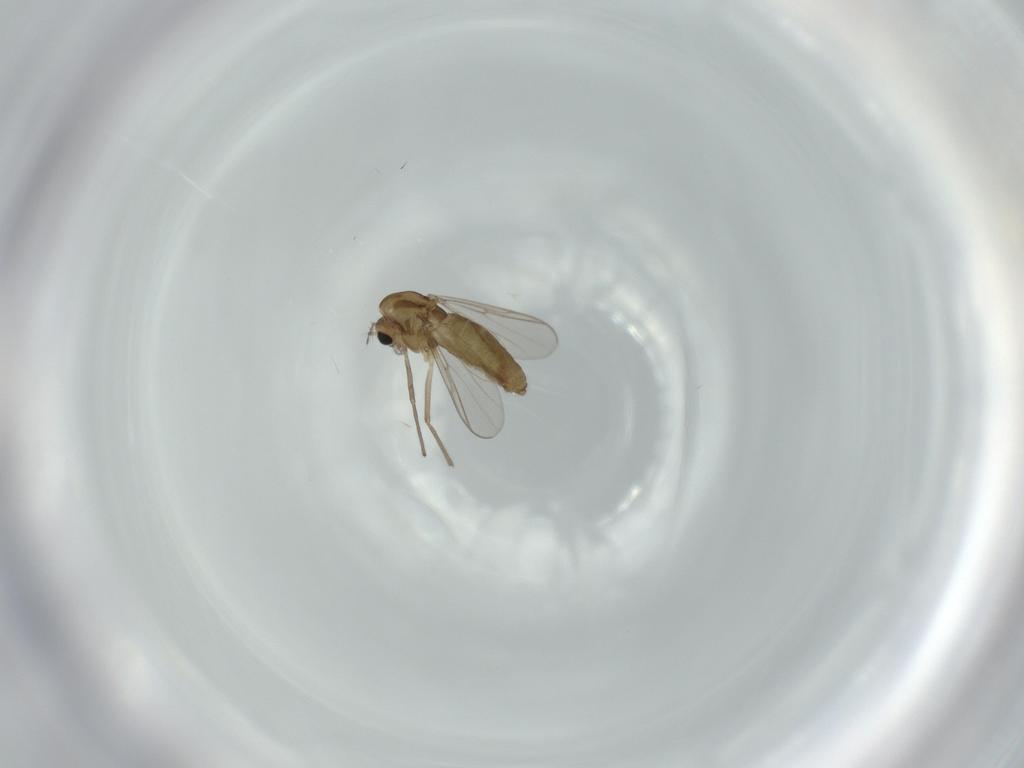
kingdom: Animalia
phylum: Arthropoda
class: Insecta
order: Diptera
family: Chironomidae
